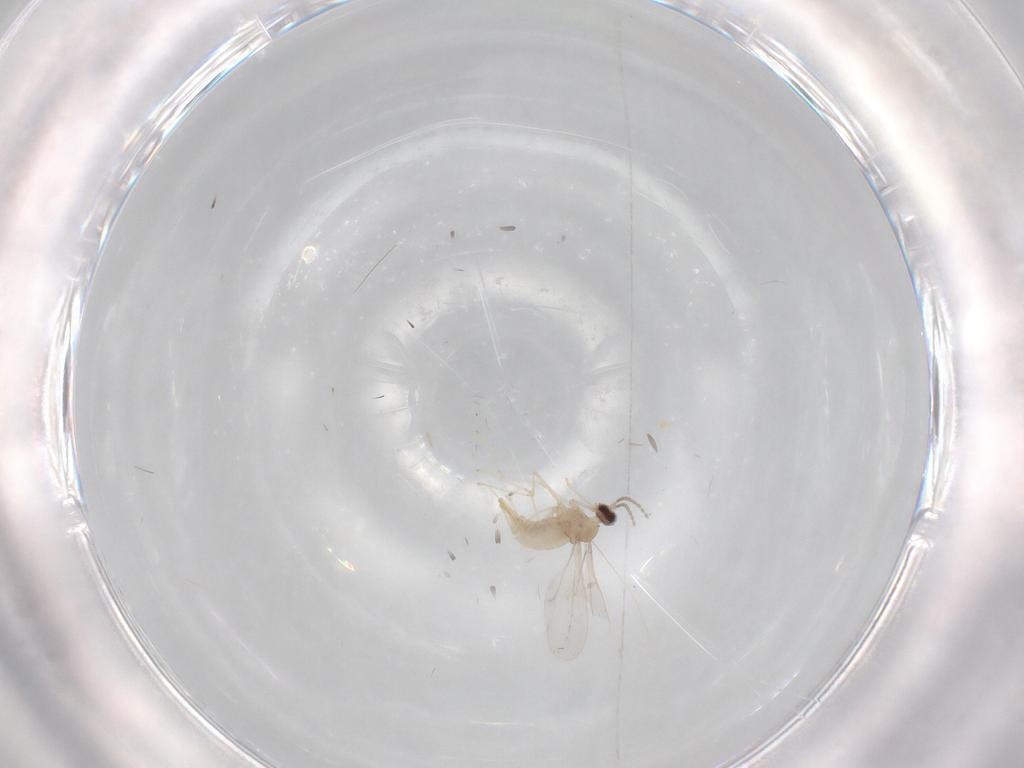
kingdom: Animalia
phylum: Arthropoda
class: Insecta
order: Diptera
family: Cecidomyiidae
